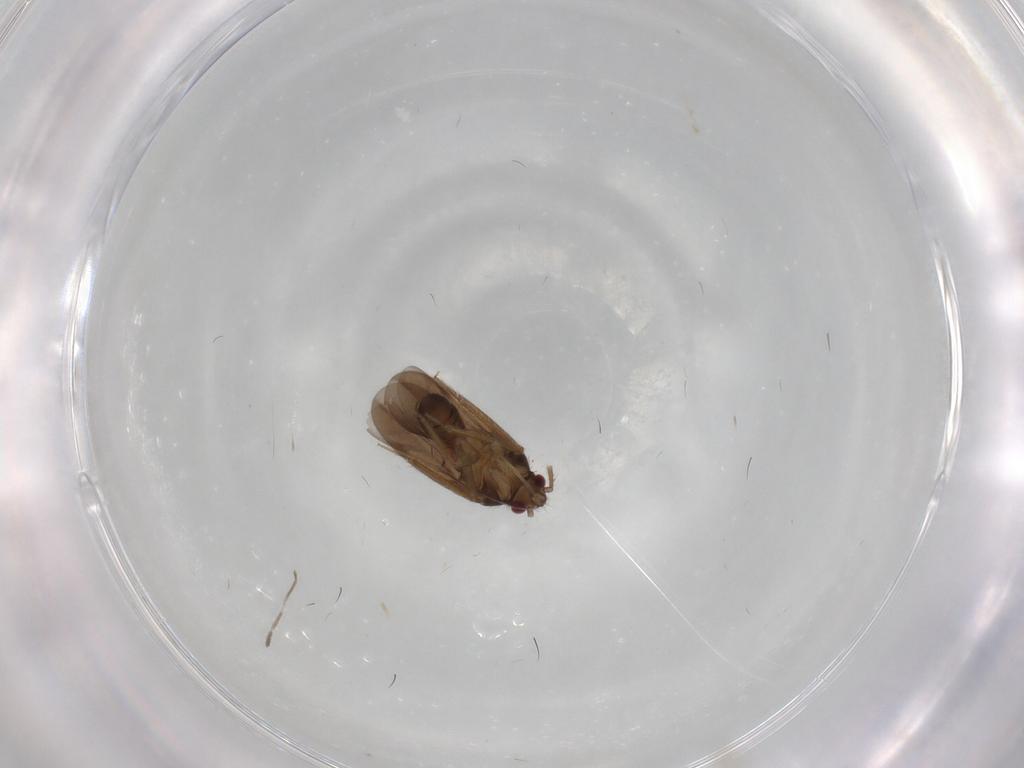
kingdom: Animalia
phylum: Arthropoda
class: Insecta
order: Hemiptera
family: Ceratocombidae
